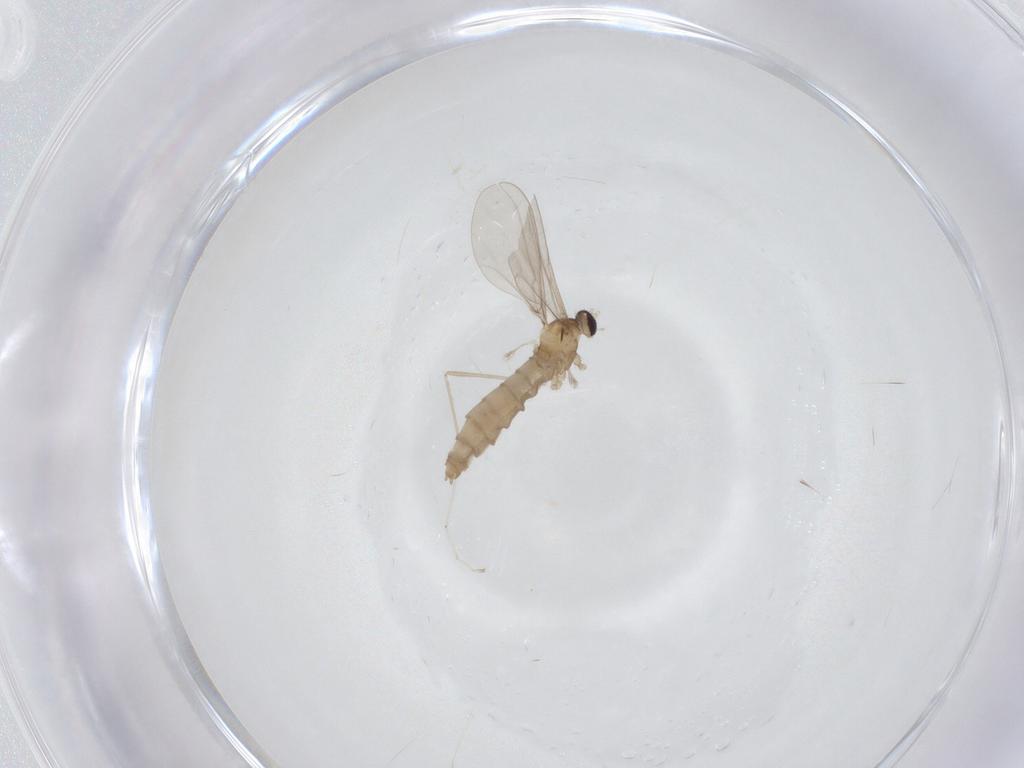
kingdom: Animalia
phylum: Arthropoda
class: Insecta
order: Diptera
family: Cecidomyiidae
